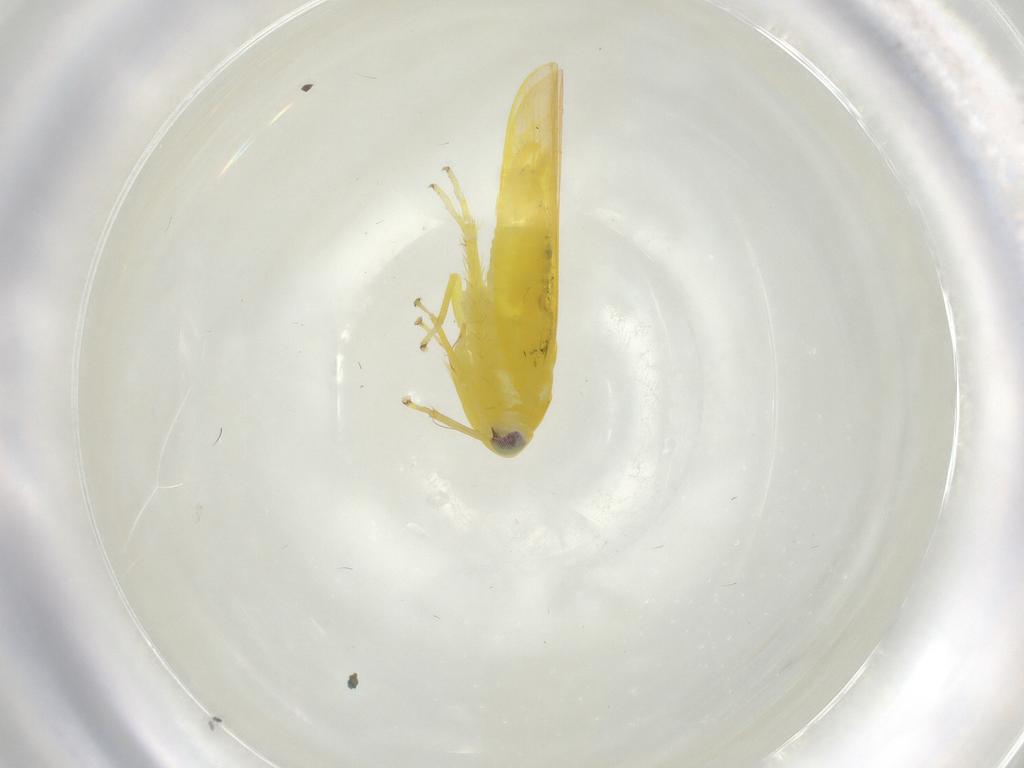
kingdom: Animalia
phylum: Arthropoda
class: Insecta
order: Hemiptera
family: Cicadellidae
